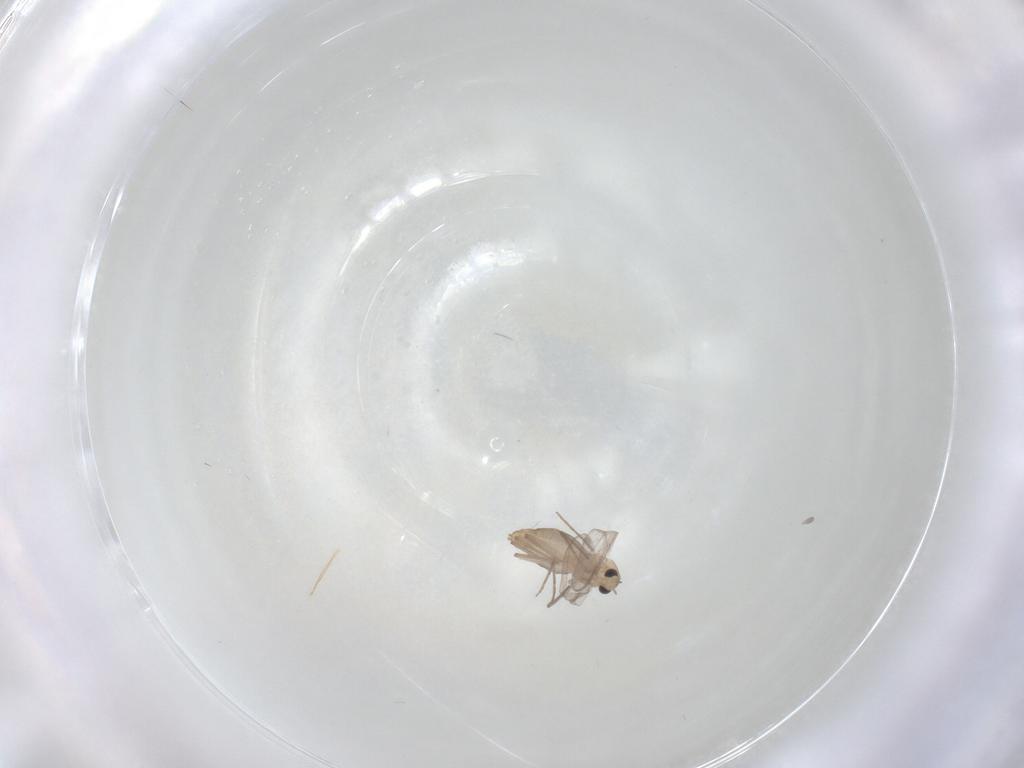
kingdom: Animalia
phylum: Arthropoda
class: Insecta
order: Diptera
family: Chironomidae
